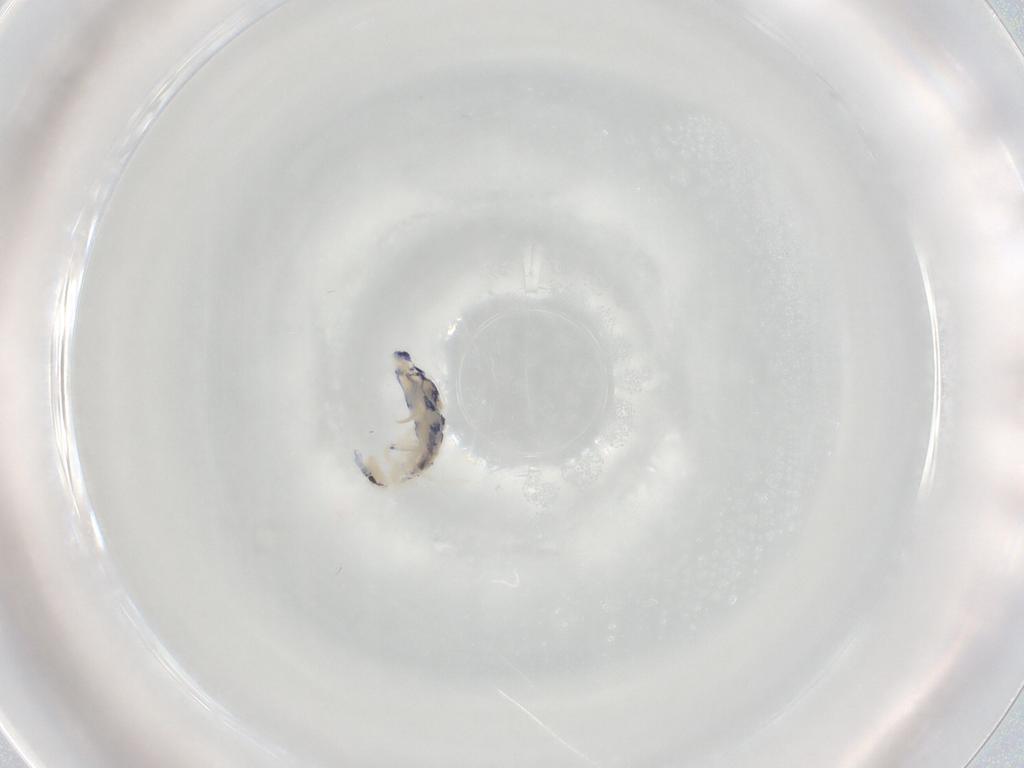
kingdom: Animalia
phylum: Arthropoda
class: Collembola
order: Entomobryomorpha
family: Entomobryidae
